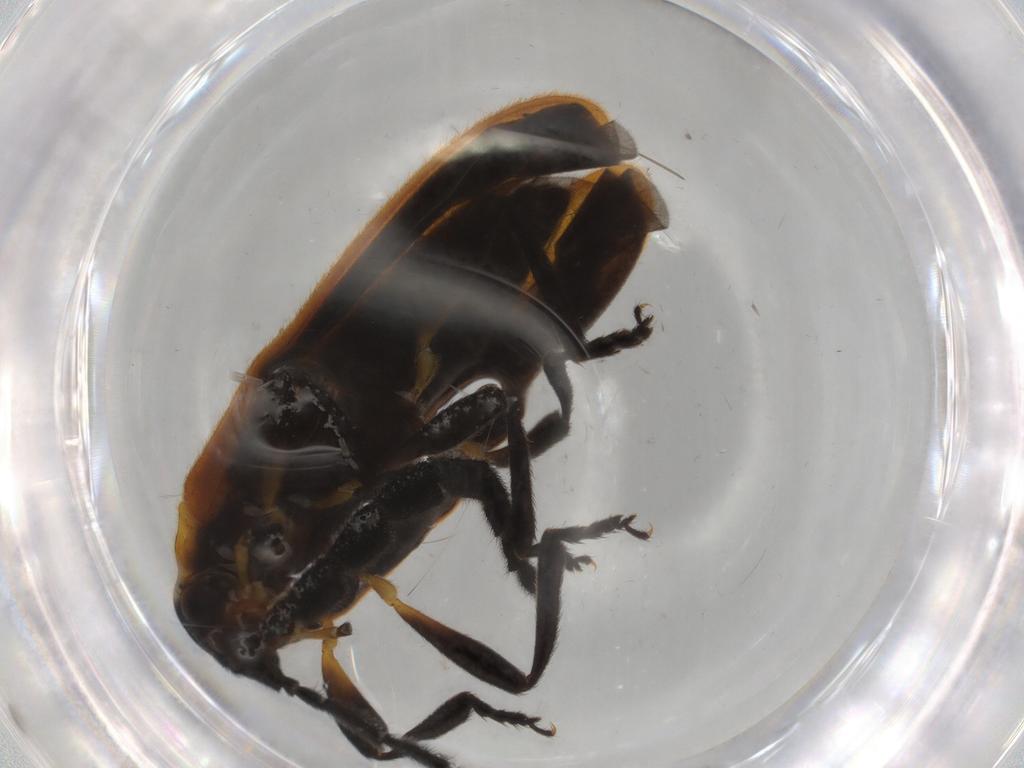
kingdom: Animalia
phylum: Arthropoda
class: Insecta
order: Coleoptera
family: Lycidae
